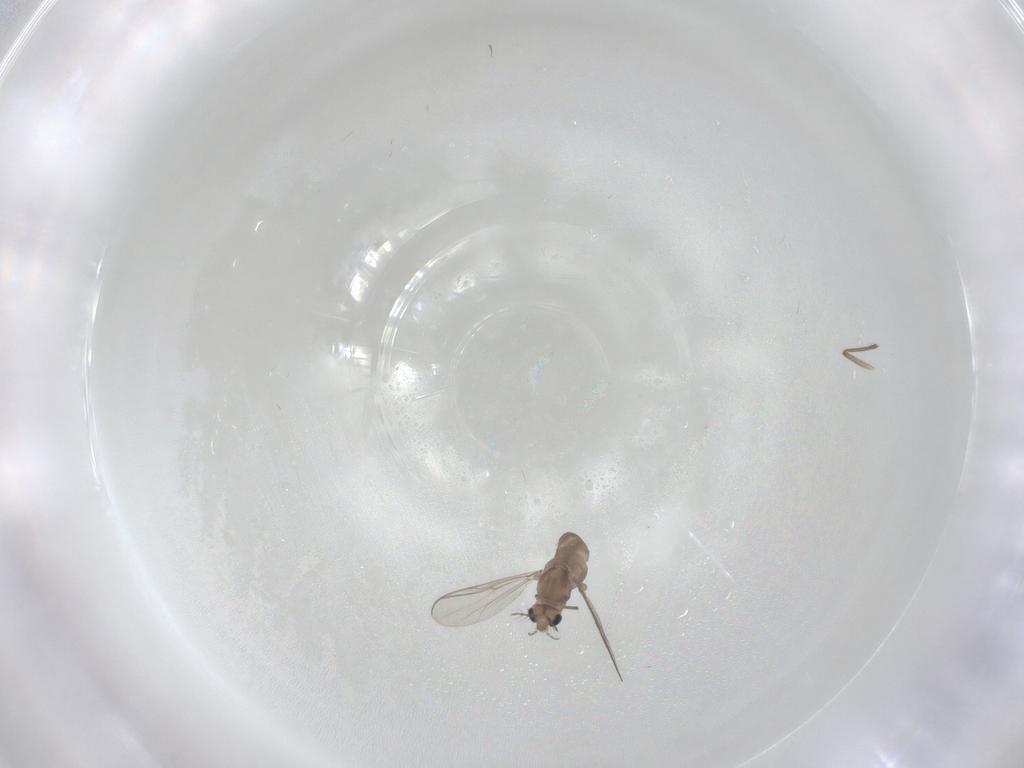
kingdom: Animalia
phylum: Arthropoda
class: Insecta
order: Diptera
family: Chironomidae
